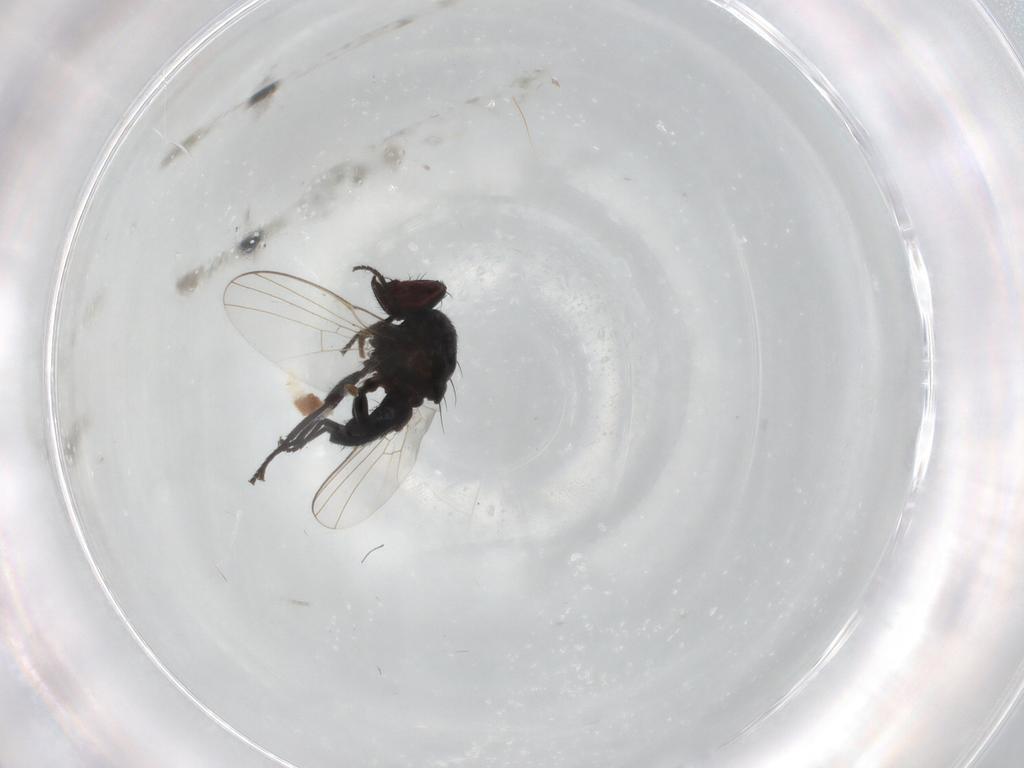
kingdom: Animalia
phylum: Arthropoda
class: Insecta
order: Diptera
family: Agromyzidae
